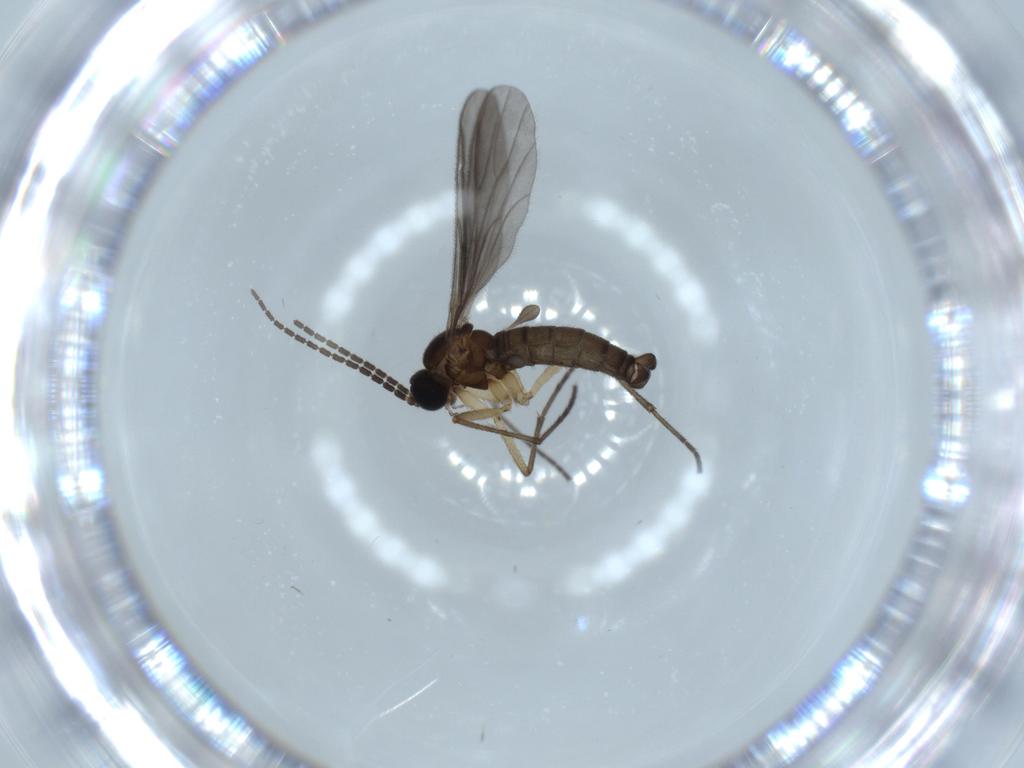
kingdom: Animalia
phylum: Arthropoda
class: Insecta
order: Diptera
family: Sciaridae
